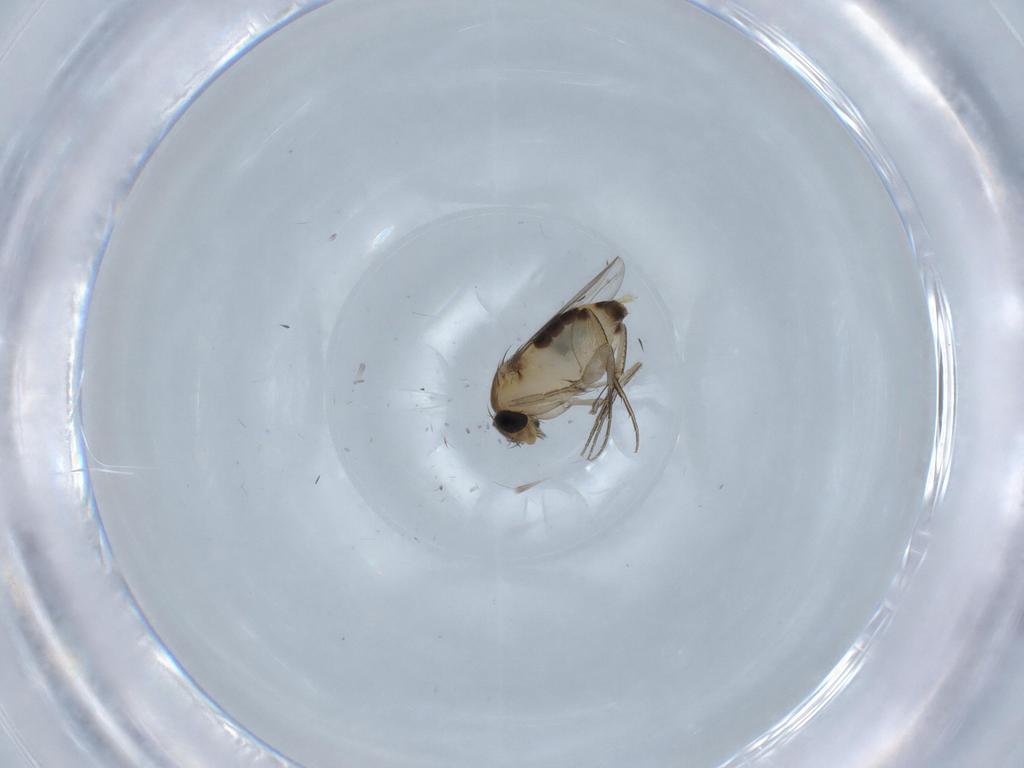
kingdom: Animalia
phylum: Arthropoda
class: Insecta
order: Diptera
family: Phoridae
